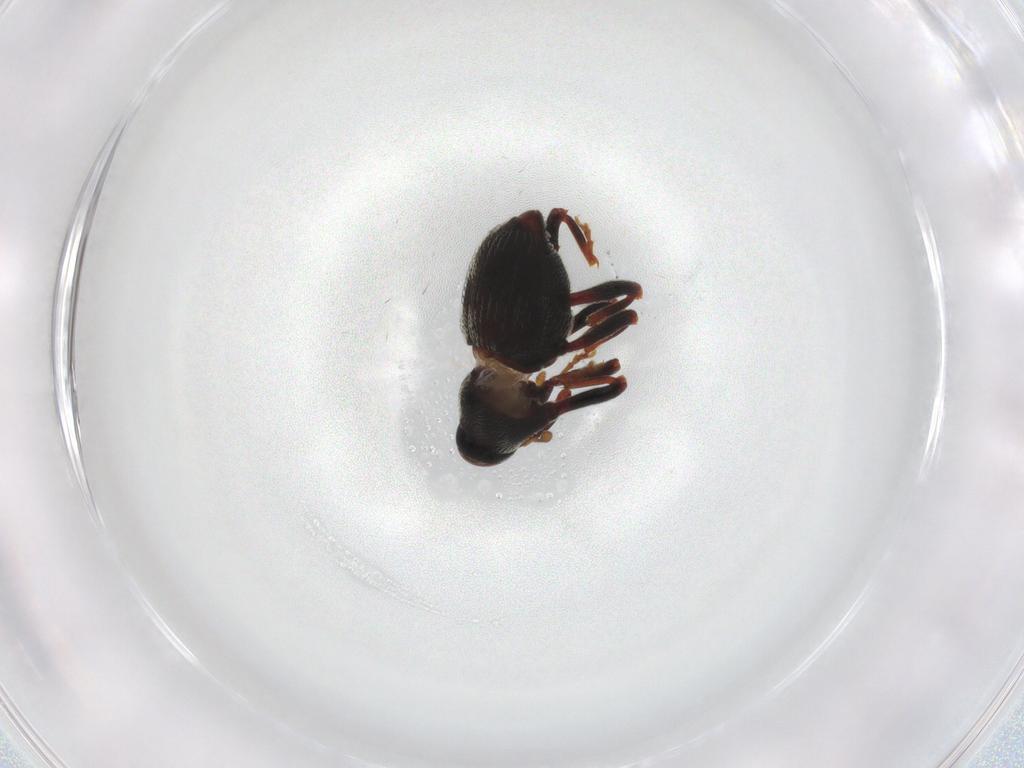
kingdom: Animalia
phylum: Arthropoda
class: Insecta
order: Coleoptera
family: Curculionidae
